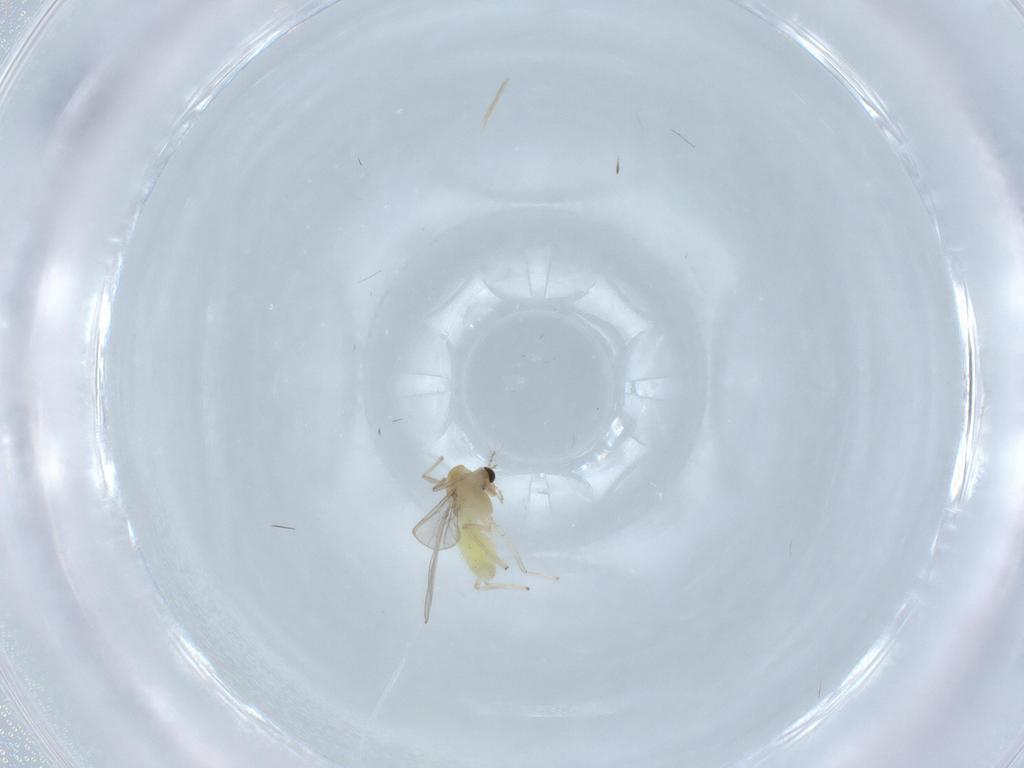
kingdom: Animalia
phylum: Arthropoda
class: Insecta
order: Diptera
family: Chironomidae
